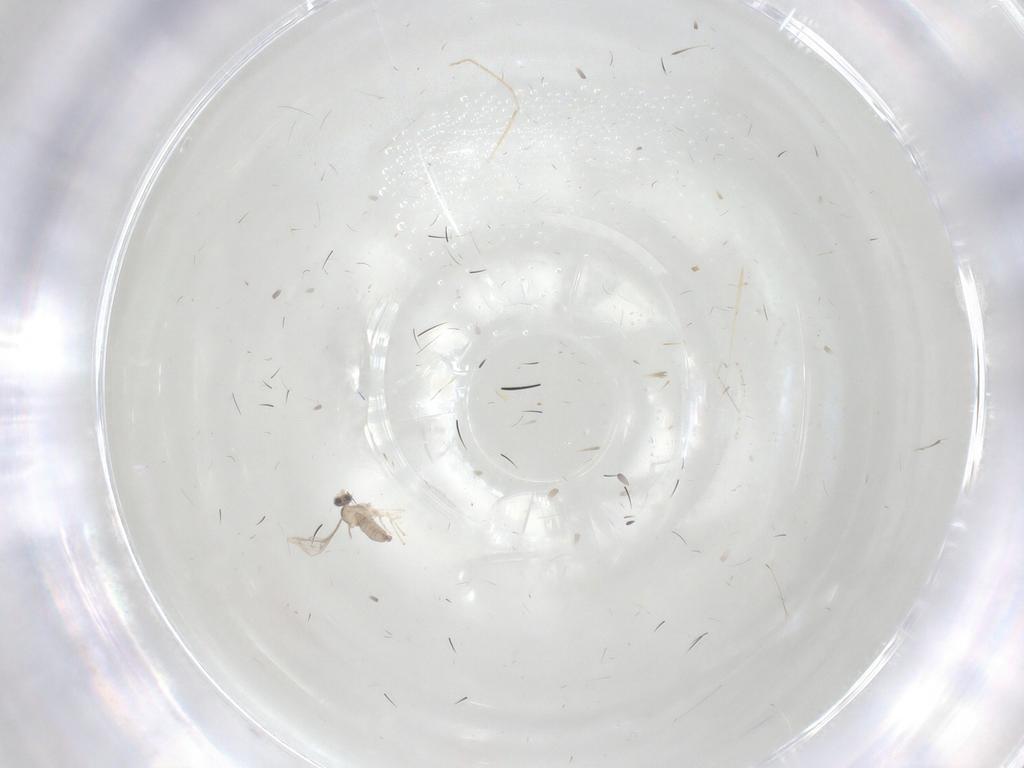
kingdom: Animalia
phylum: Arthropoda
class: Insecta
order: Diptera
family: Cecidomyiidae
